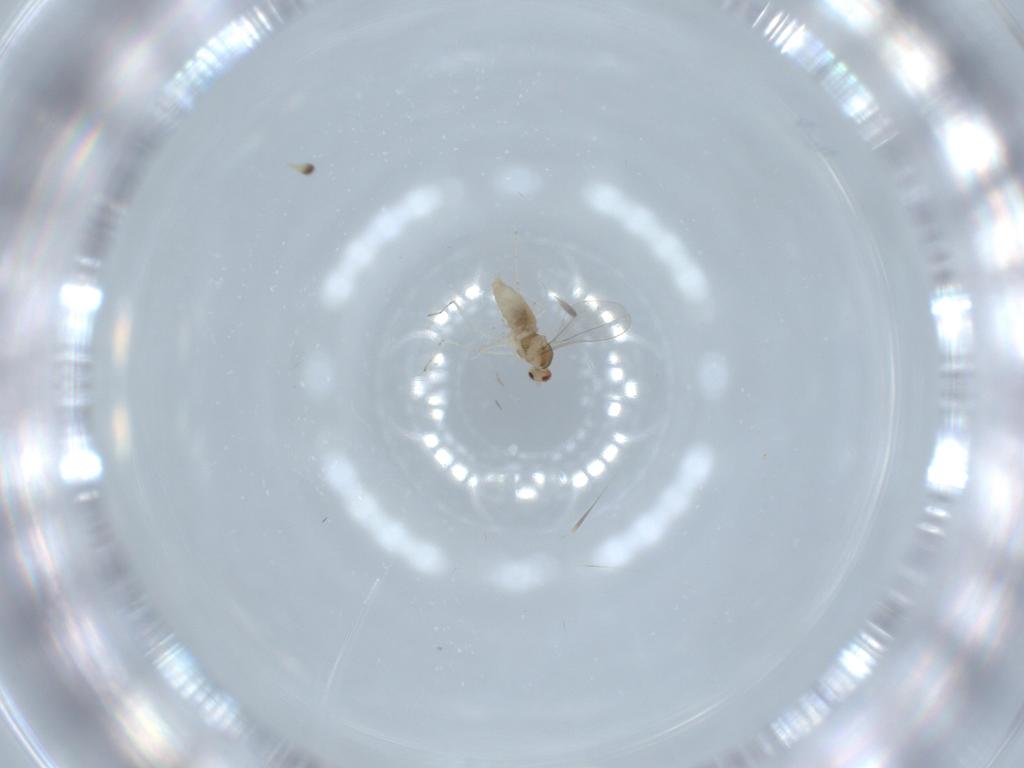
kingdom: Animalia
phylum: Arthropoda
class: Insecta
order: Diptera
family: Cecidomyiidae
